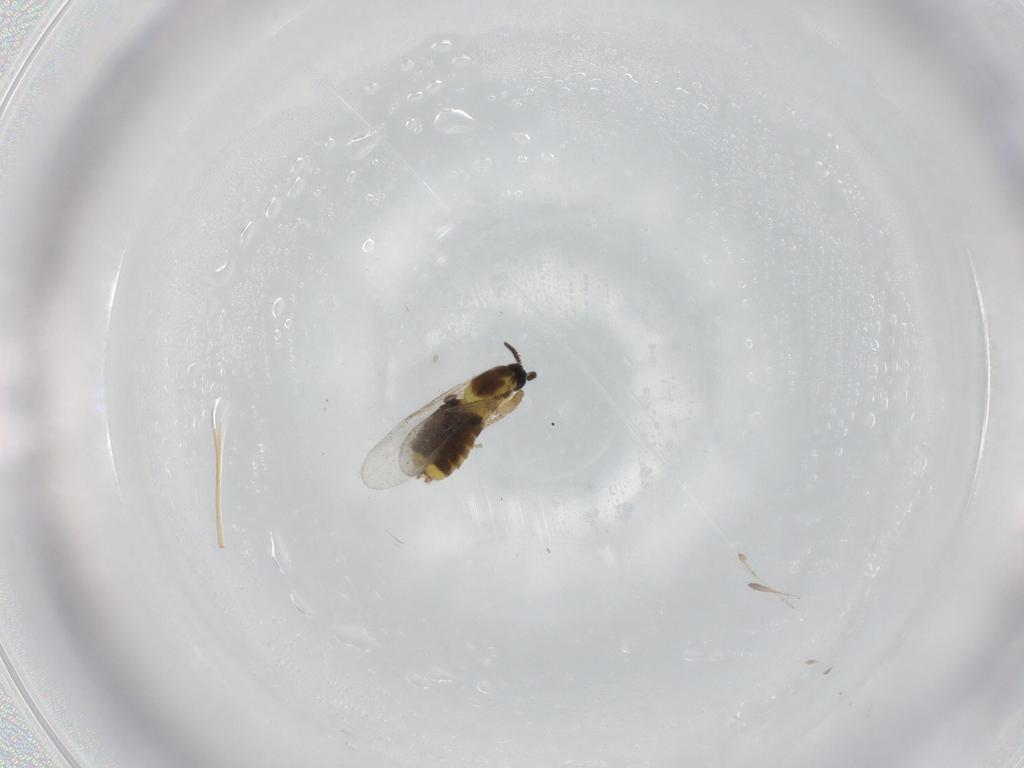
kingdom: Animalia
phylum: Arthropoda
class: Insecta
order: Diptera
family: Scatopsidae
